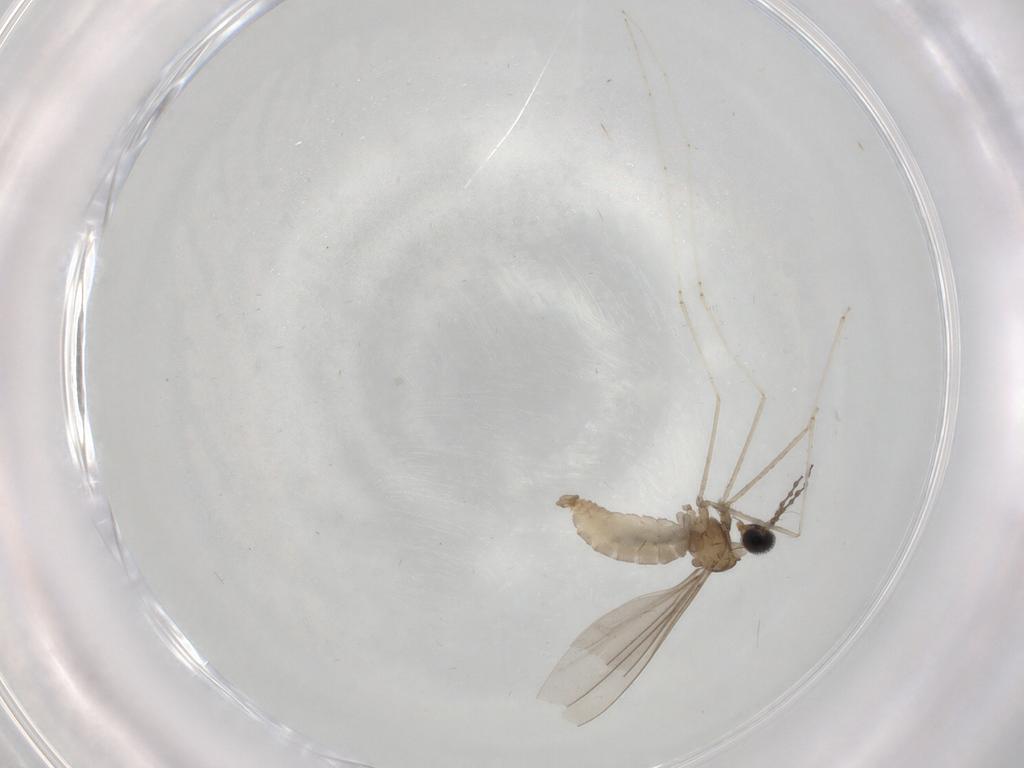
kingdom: Animalia
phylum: Arthropoda
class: Insecta
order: Diptera
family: Cecidomyiidae
